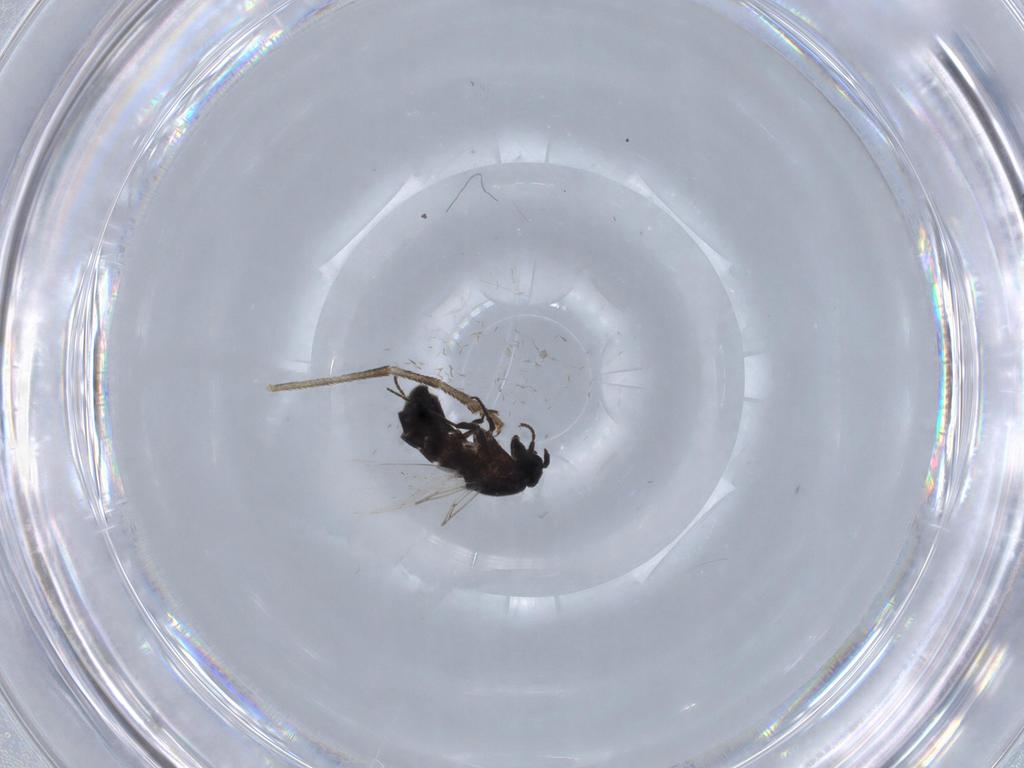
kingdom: Animalia
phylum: Arthropoda
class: Insecta
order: Diptera
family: Scatopsidae
